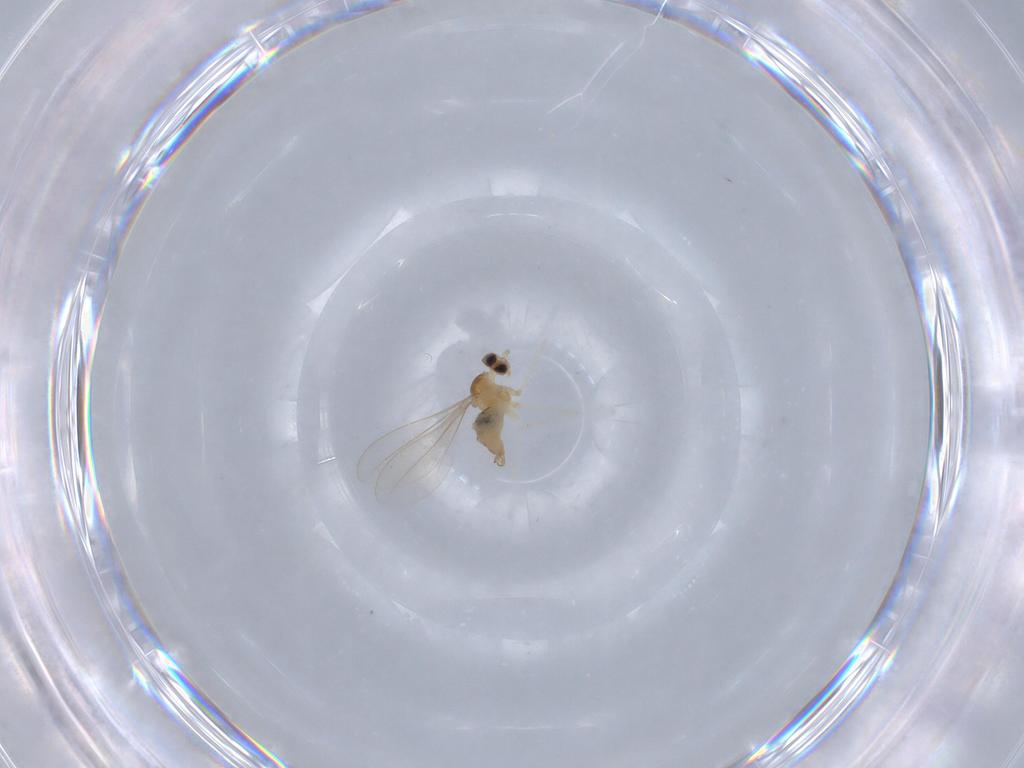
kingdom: Animalia
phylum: Arthropoda
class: Insecta
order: Diptera
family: Cecidomyiidae
